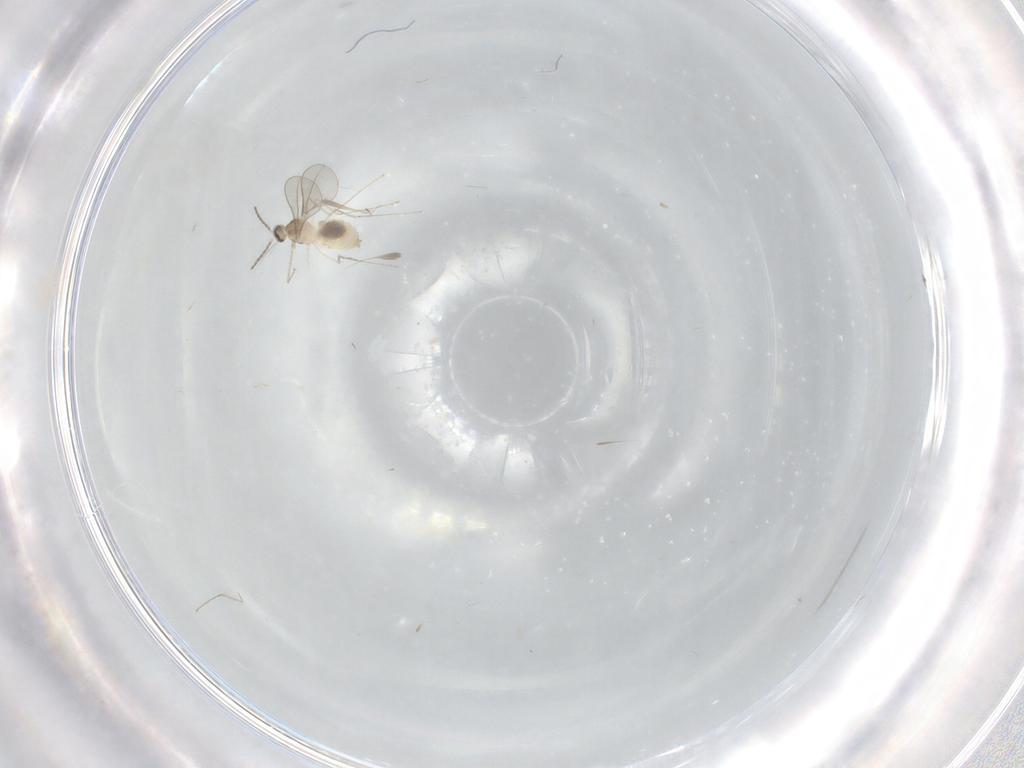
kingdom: Animalia
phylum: Arthropoda
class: Insecta
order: Diptera
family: Cecidomyiidae
